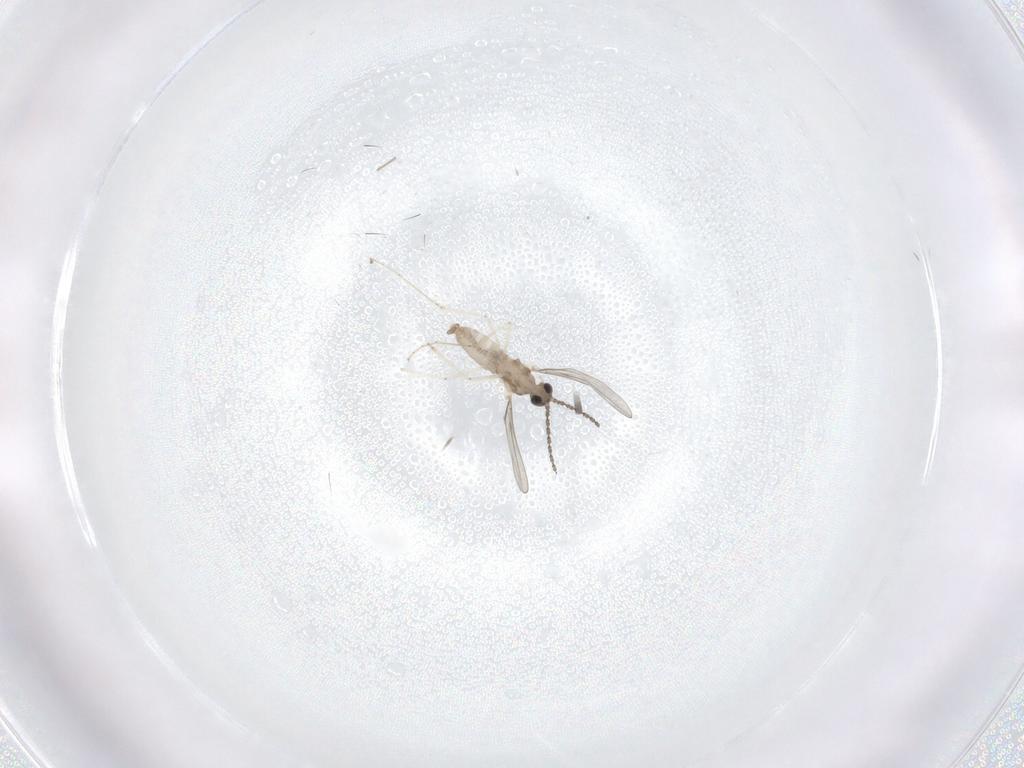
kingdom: Animalia
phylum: Arthropoda
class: Insecta
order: Diptera
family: Cecidomyiidae
